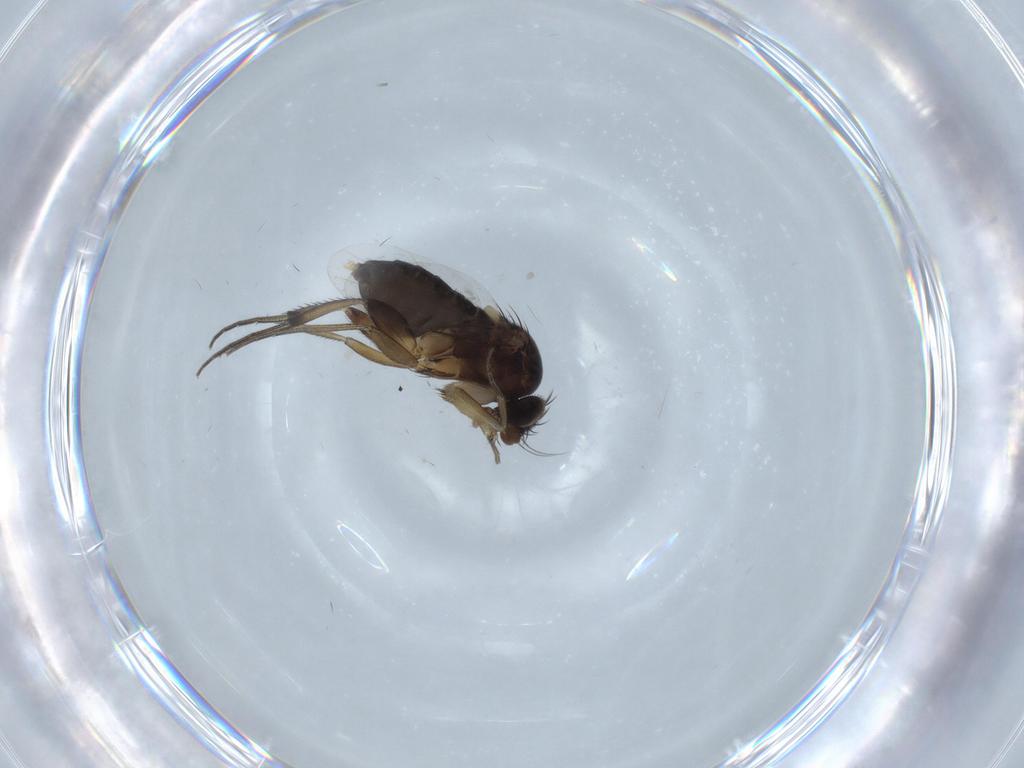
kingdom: Animalia
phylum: Arthropoda
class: Insecta
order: Diptera
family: Phoridae
